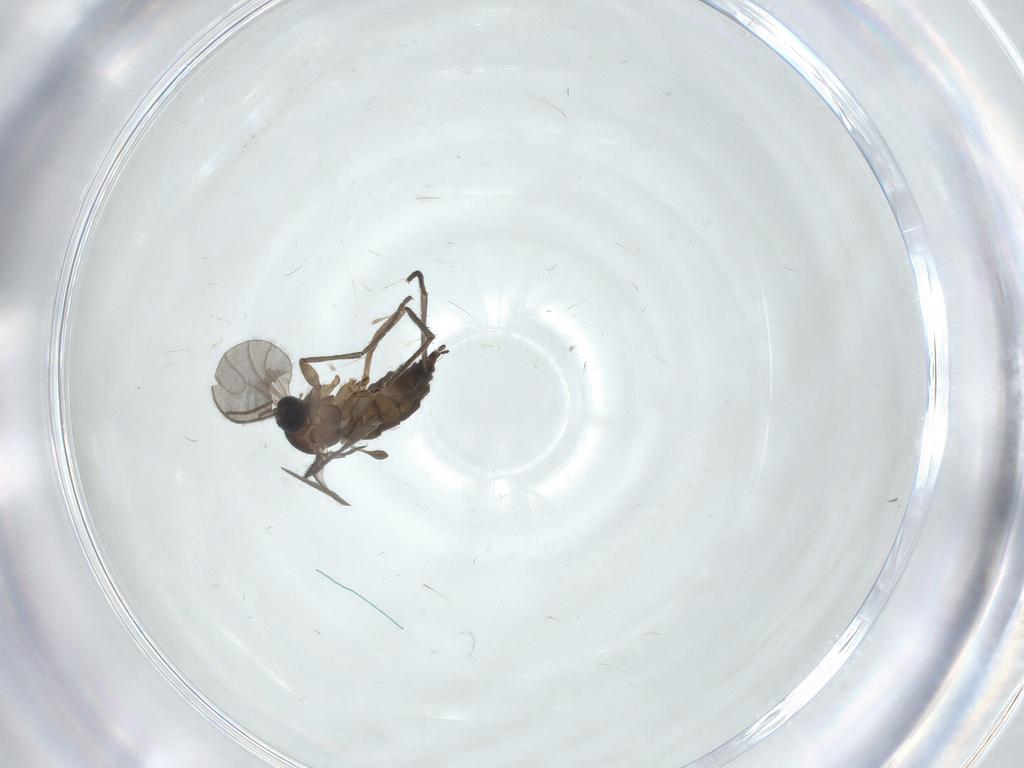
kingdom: Animalia
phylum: Arthropoda
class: Insecta
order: Diptera
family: Sciaridae
